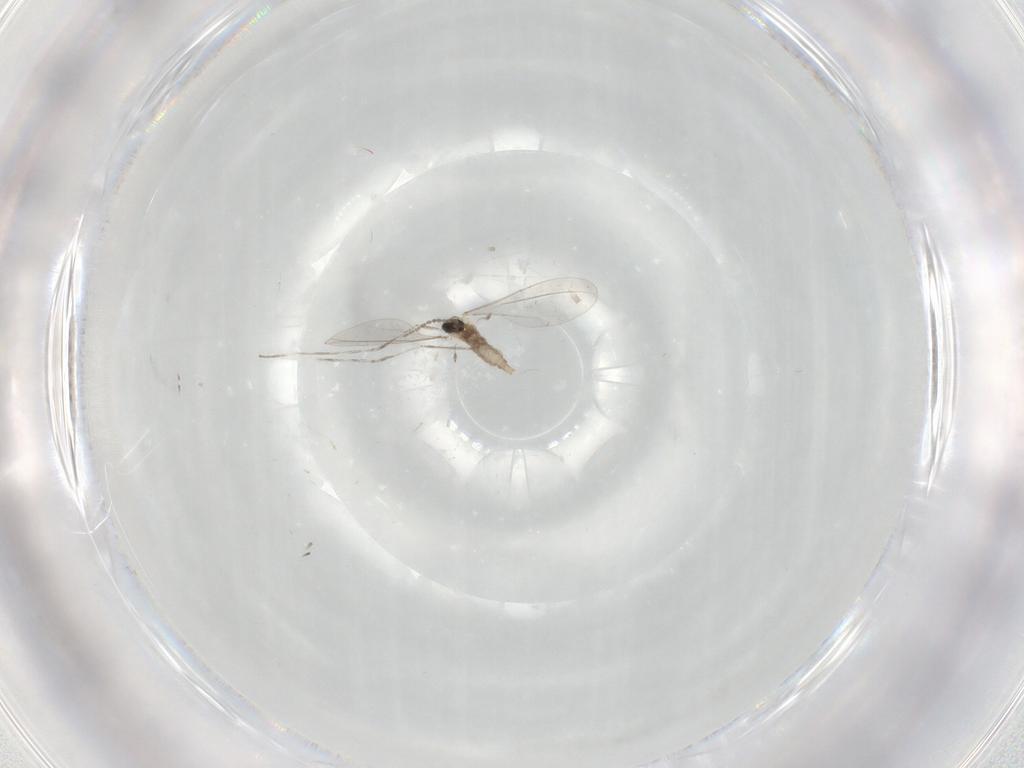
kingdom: Animalia
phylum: Arthropoda
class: Insecta
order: Diptera
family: Cecidomyiidae
